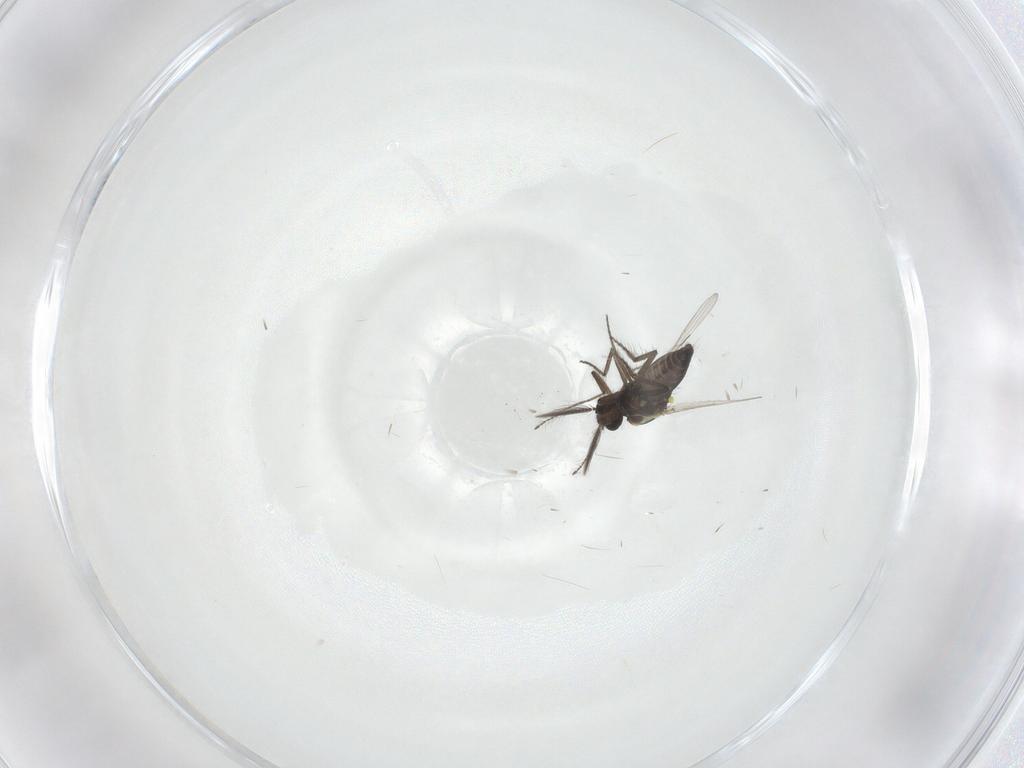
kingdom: Animalia
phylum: Arthropoda
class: Insecta
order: Diptera
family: Ceratopogonidae
